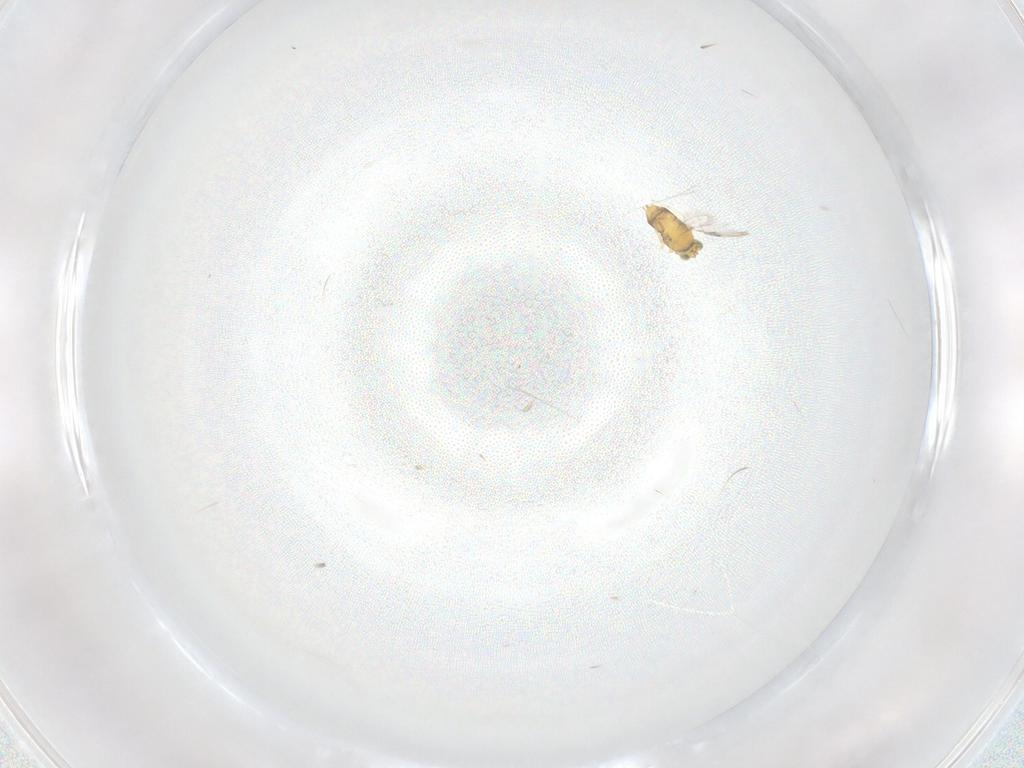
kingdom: Animalia
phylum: Arthropoda
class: Insecta
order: Hymenoptera
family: Aphelinidae
